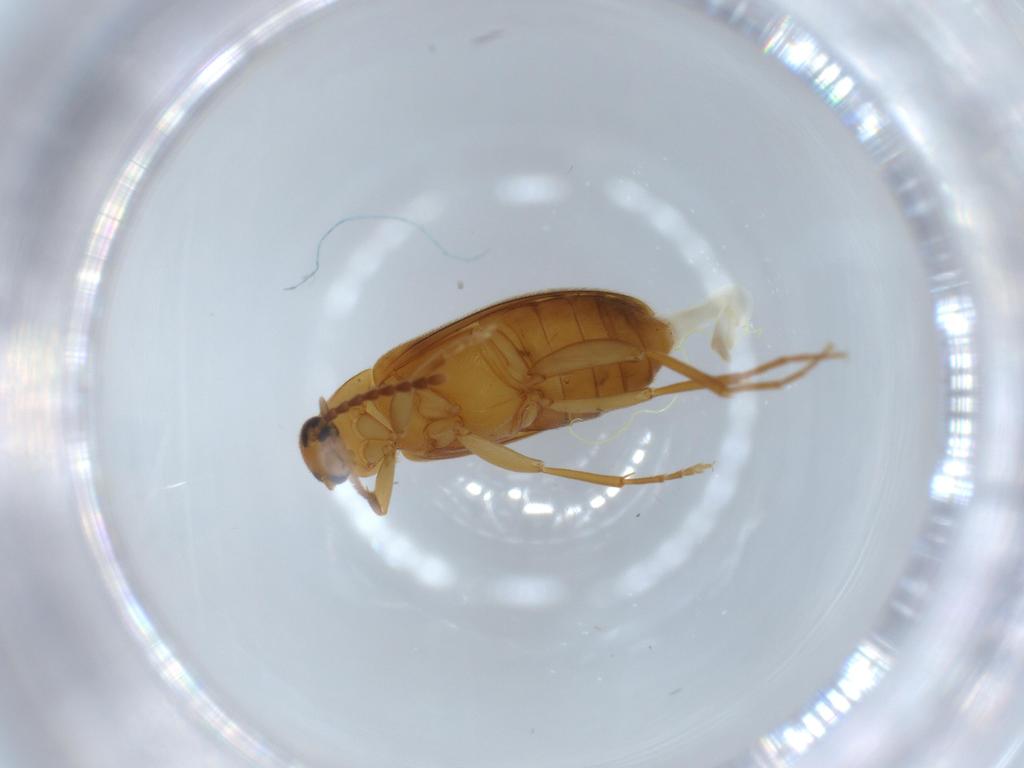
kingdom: Animalia
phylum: Arthropoda
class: Insecta
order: Coleoptera
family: Scraptiidae
